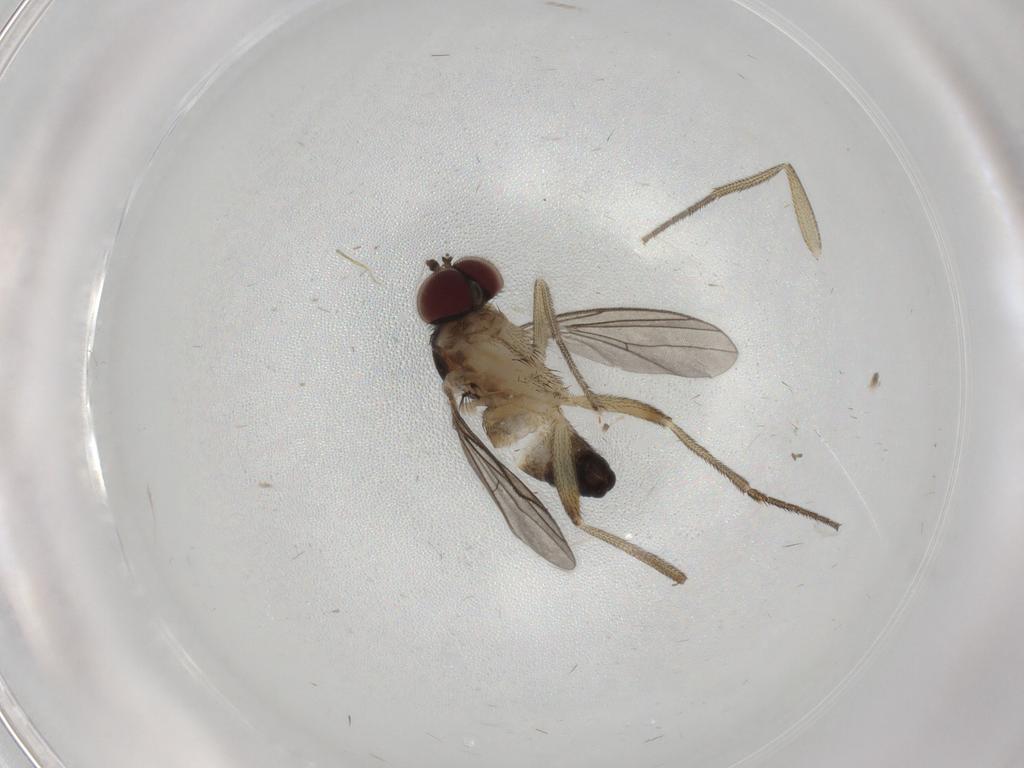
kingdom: Animalia
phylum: Arthropoda
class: Insecta
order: Diptera
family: Dolichopodidae
